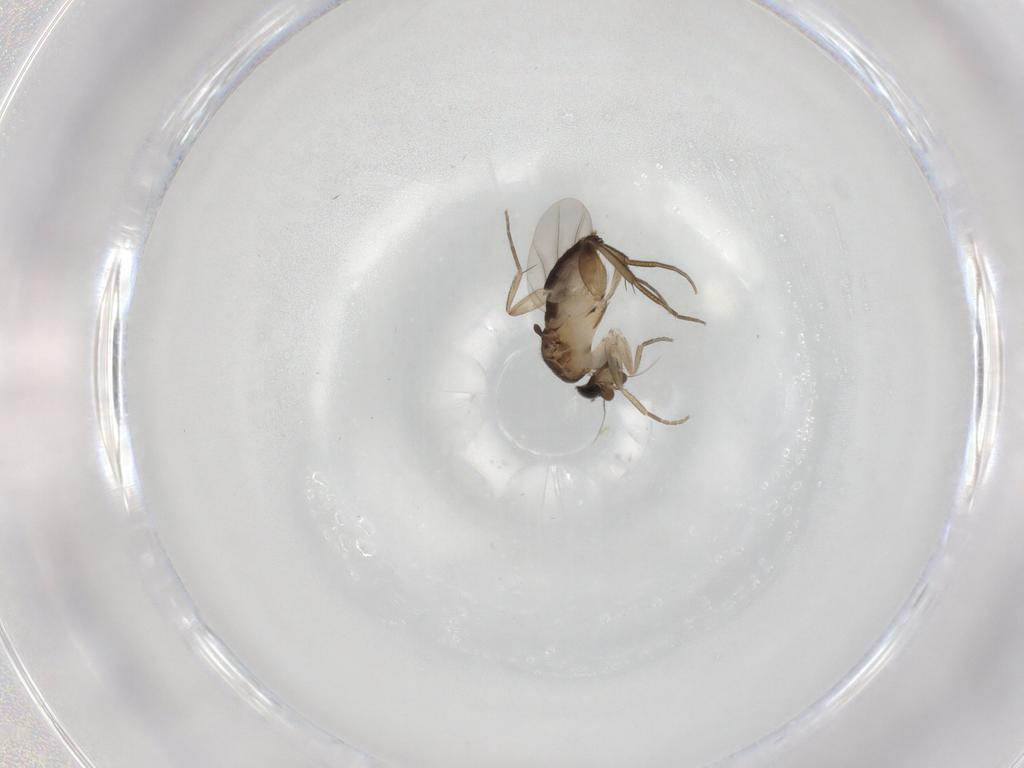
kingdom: Animalia
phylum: Arthropoda
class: Insecta
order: Diptera
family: Phoridae
